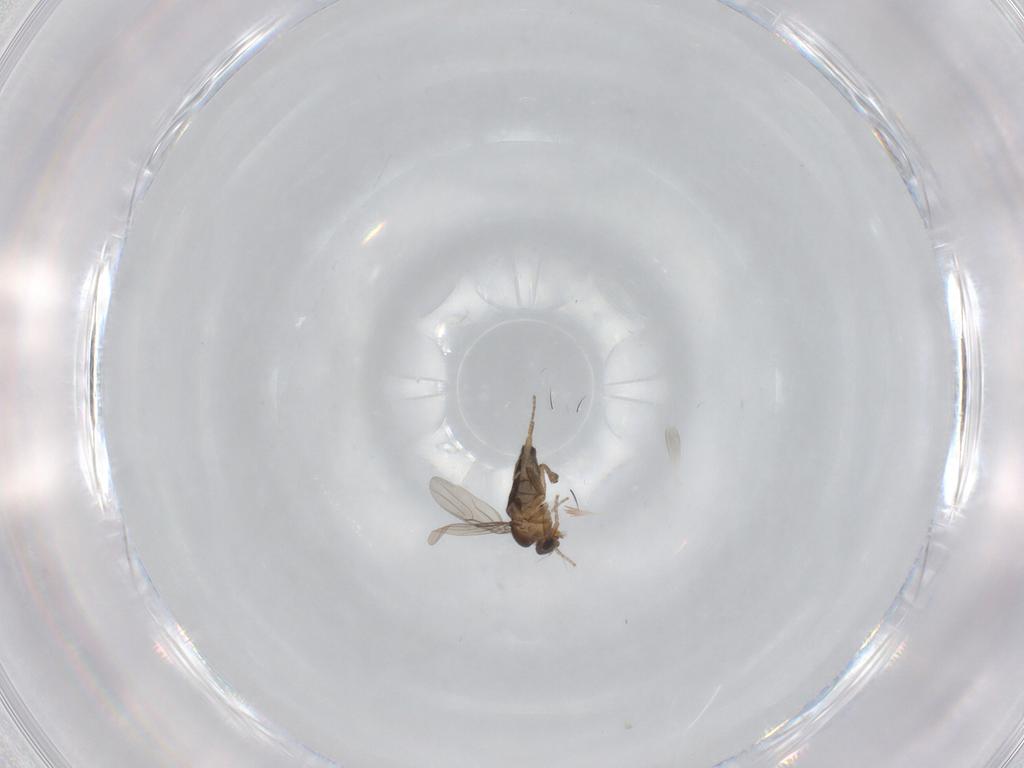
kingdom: Animalia
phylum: Arthropoda
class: Insecta
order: Diptera
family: Phoridae
